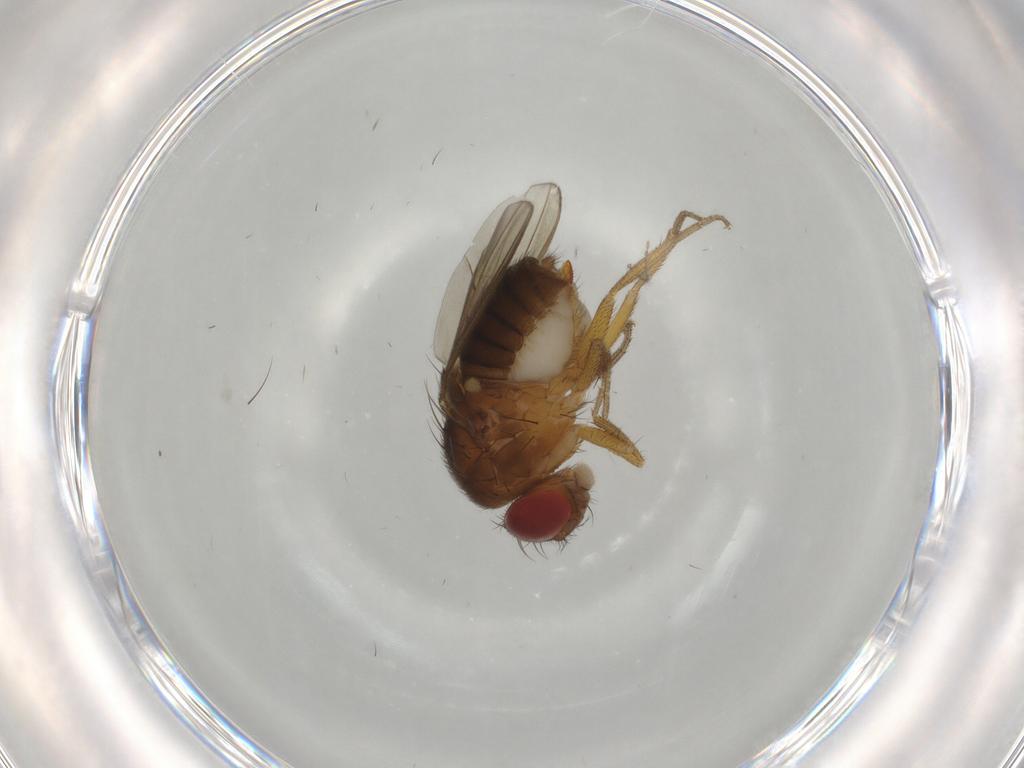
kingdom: Animalia
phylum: Arthropoda
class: Insecta
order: Diptera
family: Drosophilidae
